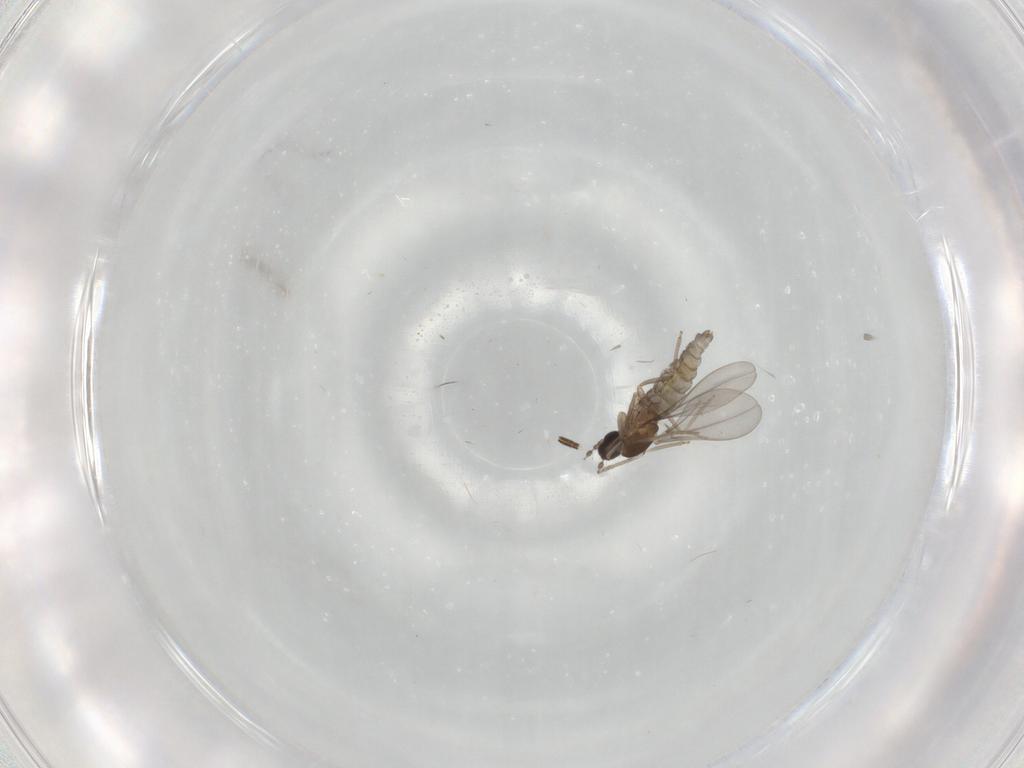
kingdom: Animalia
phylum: Arthropoda
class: Insecta
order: Diptera
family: Cecidomyiidae
